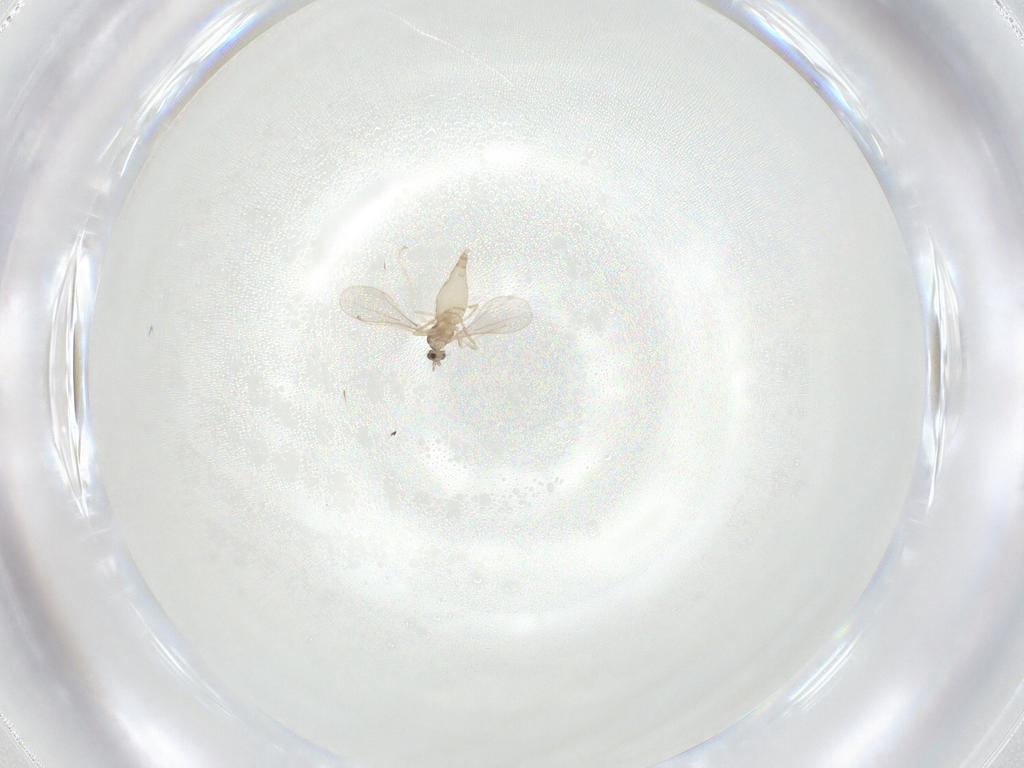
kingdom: Animalia
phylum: Arthropoda
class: Insecta
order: Diptera
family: Cecidomyiidae
